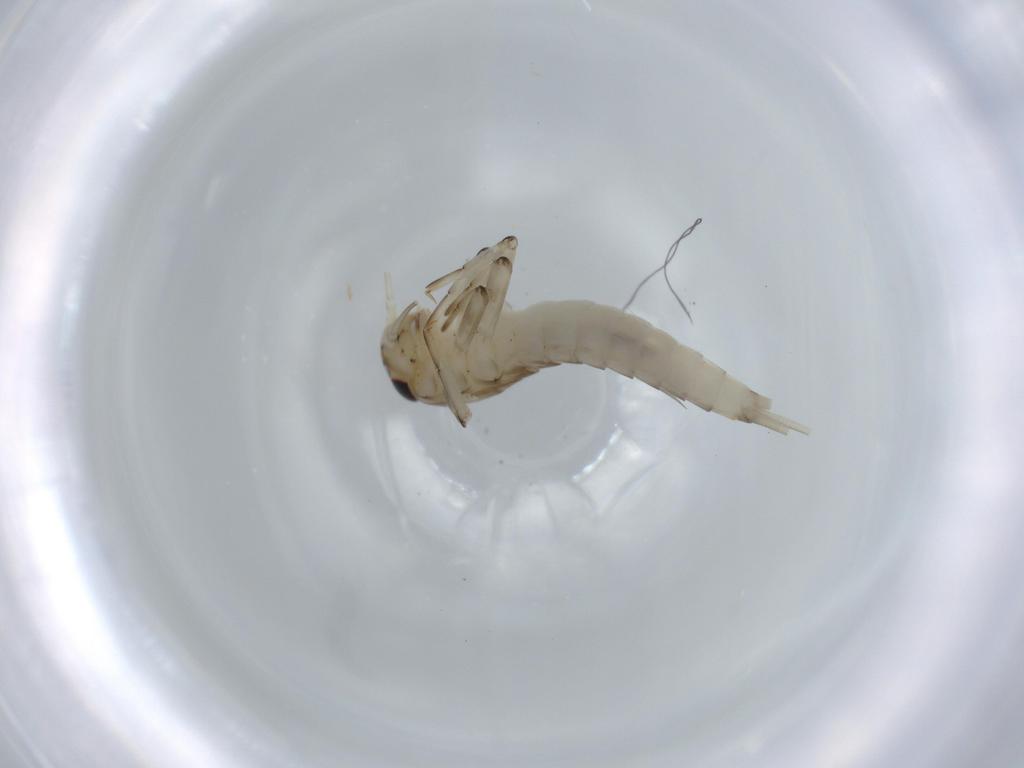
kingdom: Animalia
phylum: Arthropoda
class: Insecta
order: Ephemeroptera
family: Baetidae
